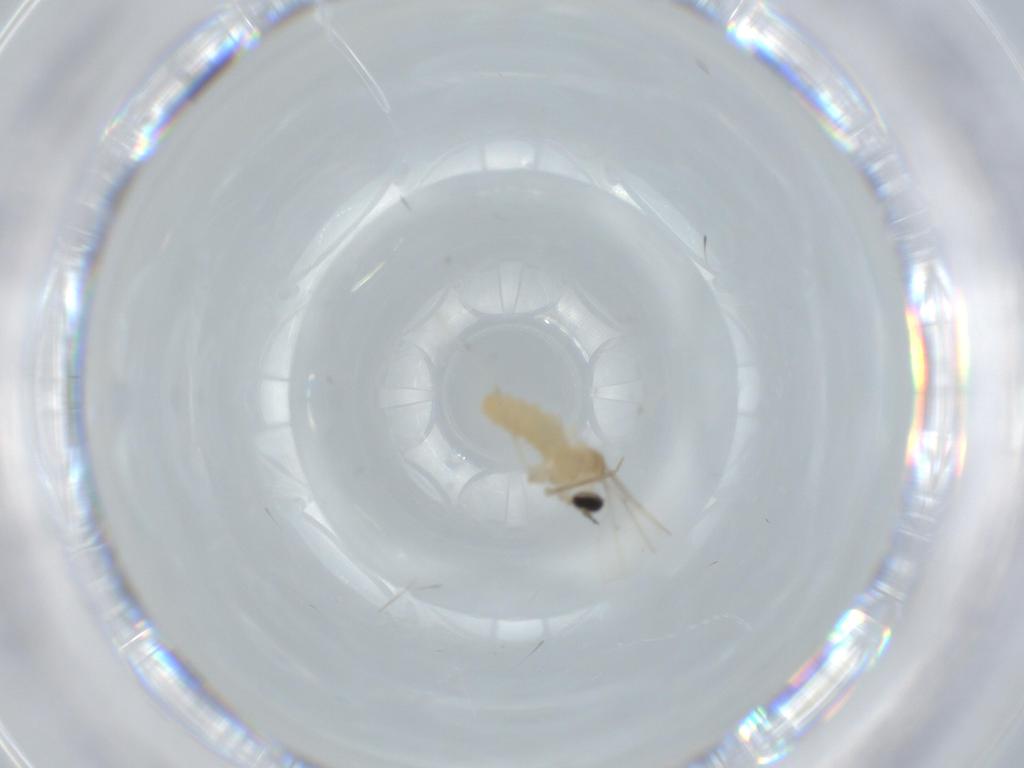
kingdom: Animalia
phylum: Arthropoda
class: Insecta
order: Diptera
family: Cecidomyiidae
